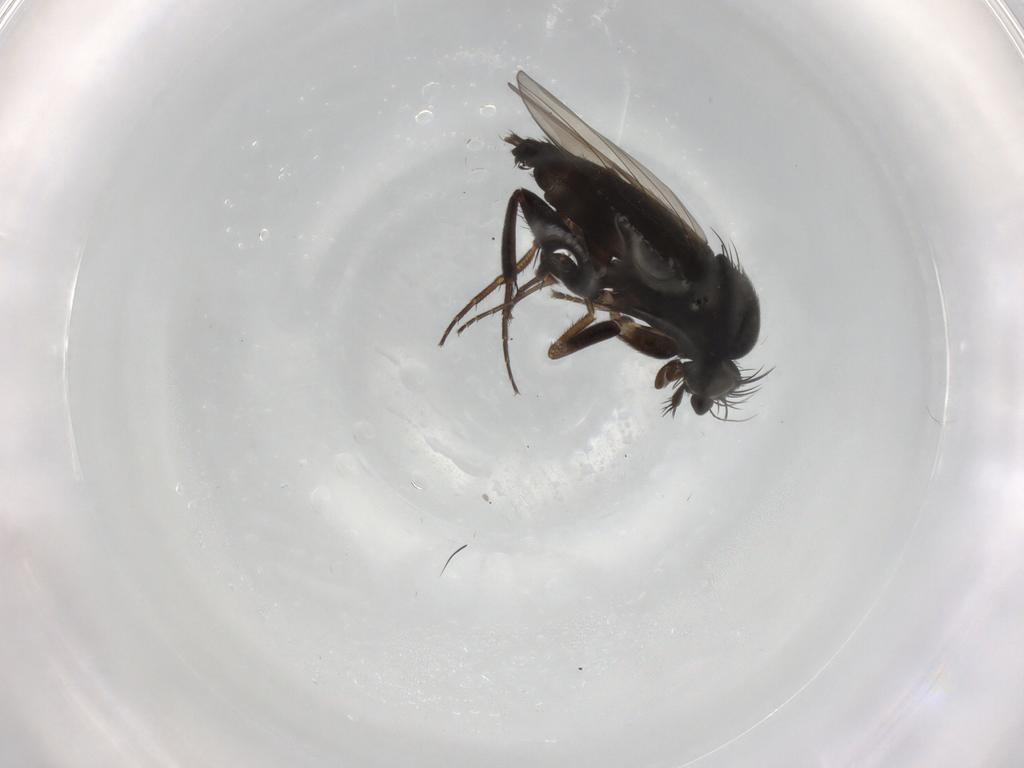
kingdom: Animalia
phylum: Arthropoda
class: Insecta
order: Diptera
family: Phoridae
